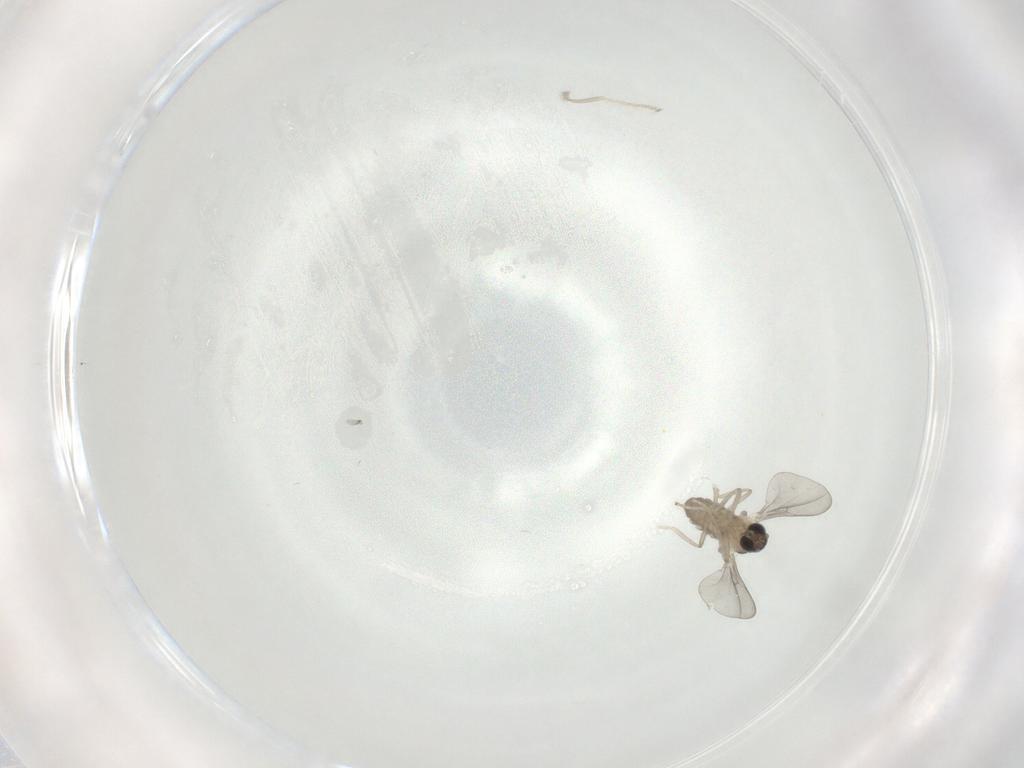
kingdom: Animalia
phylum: Arthropoda
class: Insecta
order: Diptera
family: Cecidomyiidae
